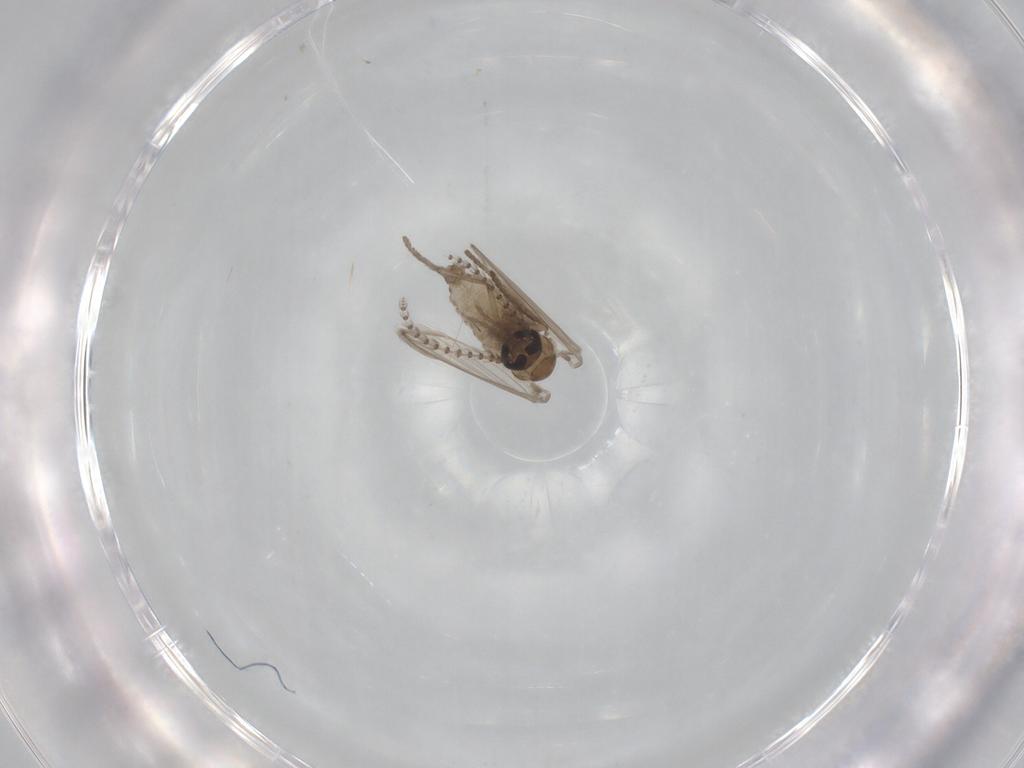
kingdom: Animalia
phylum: Arthropoda
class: Insecta
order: Diptera
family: Psychodidae
